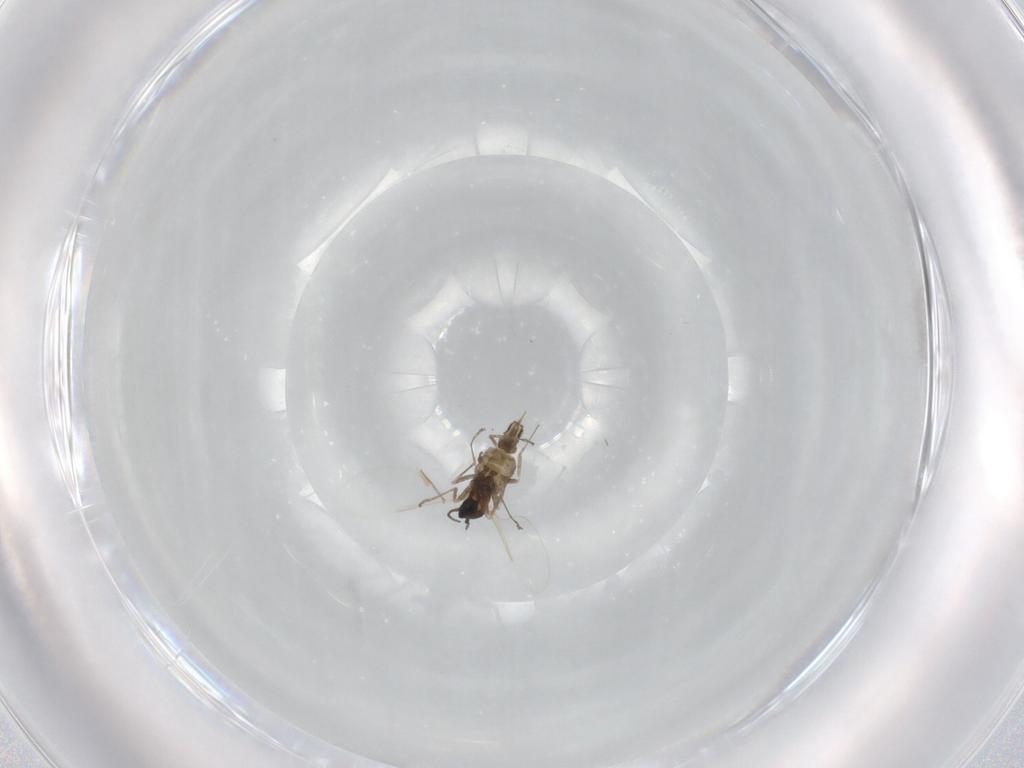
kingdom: Animalia
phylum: Arthropoda
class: Insecta
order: Diptera
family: Cecidomyiidae
